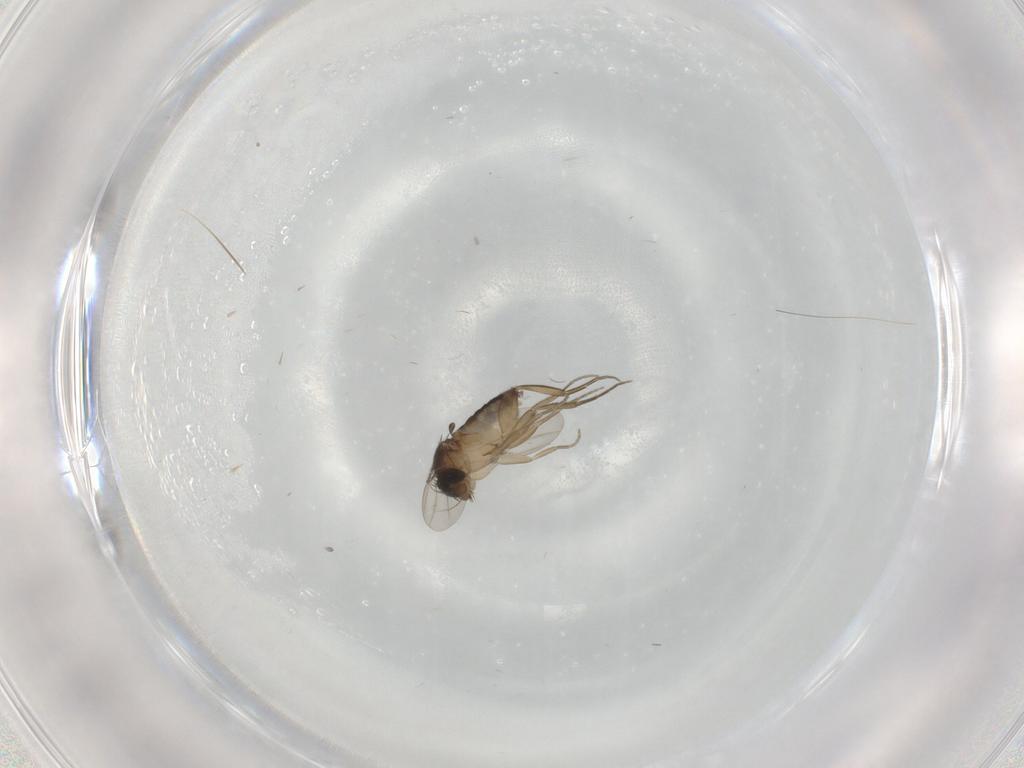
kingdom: Animalia
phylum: Arthropoda
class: Insecta
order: Diptera
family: Phoridae
